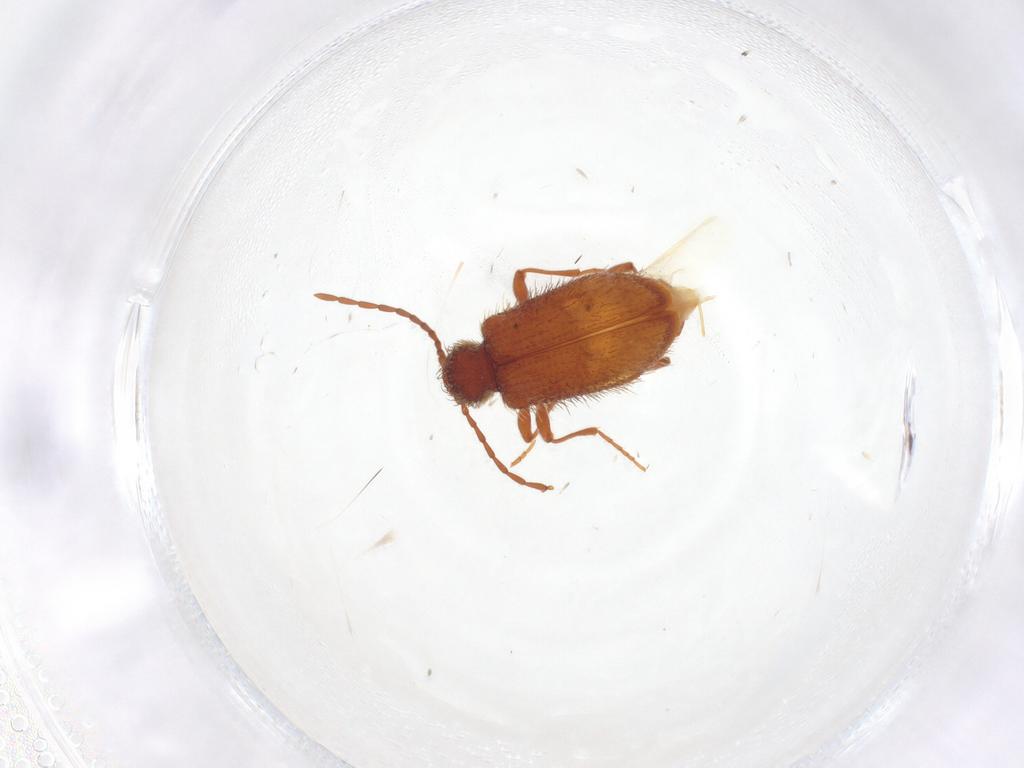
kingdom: Animalia
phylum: Arthropoda
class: Insecta
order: Coleoptera
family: Ptinidae
